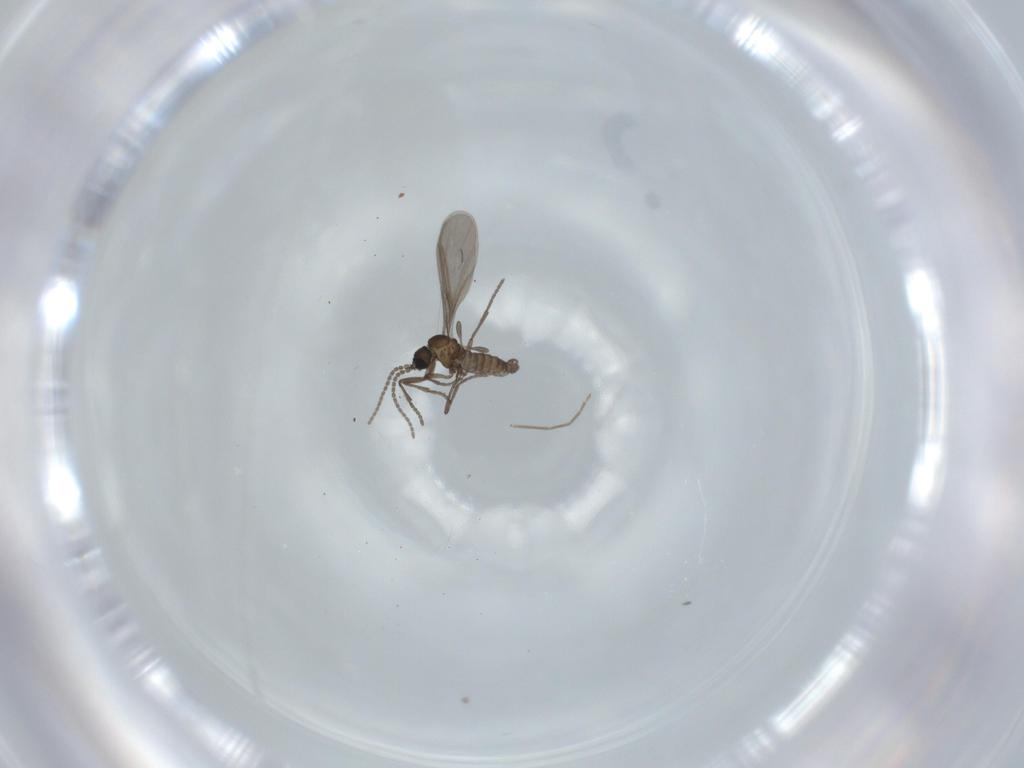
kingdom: Animalia
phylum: Arthropoda
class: Insecta
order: Diptera
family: Chironomidae
